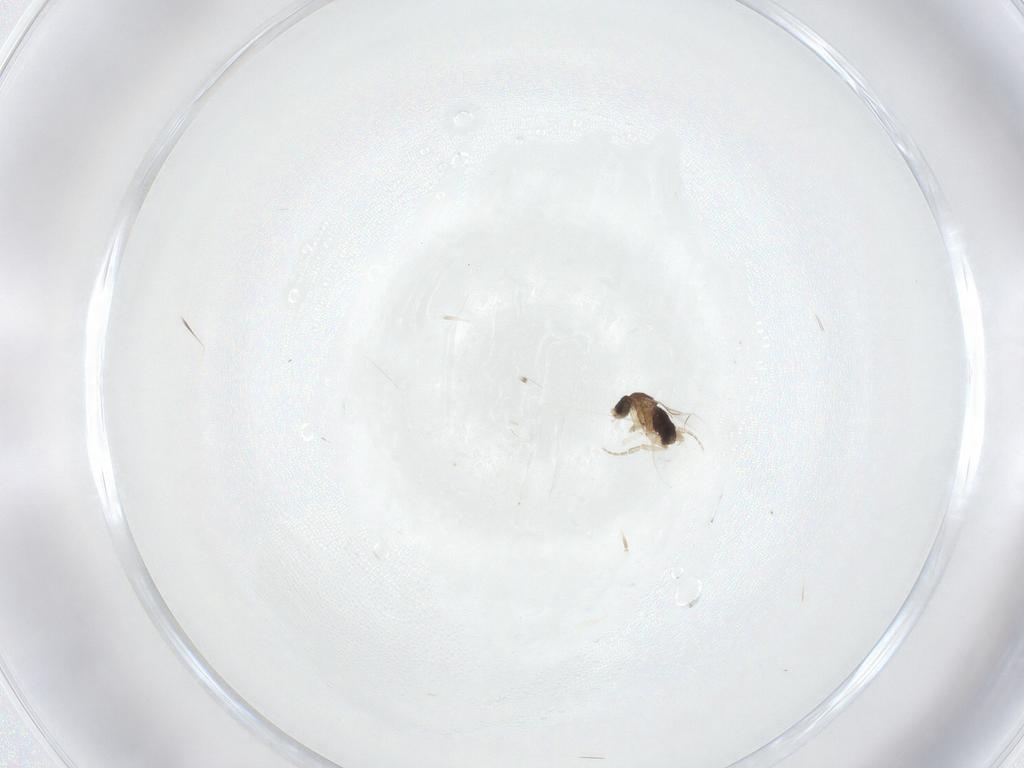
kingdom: Animalia
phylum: Arthropoda
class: Insecta
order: Diptera
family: Phoridae
